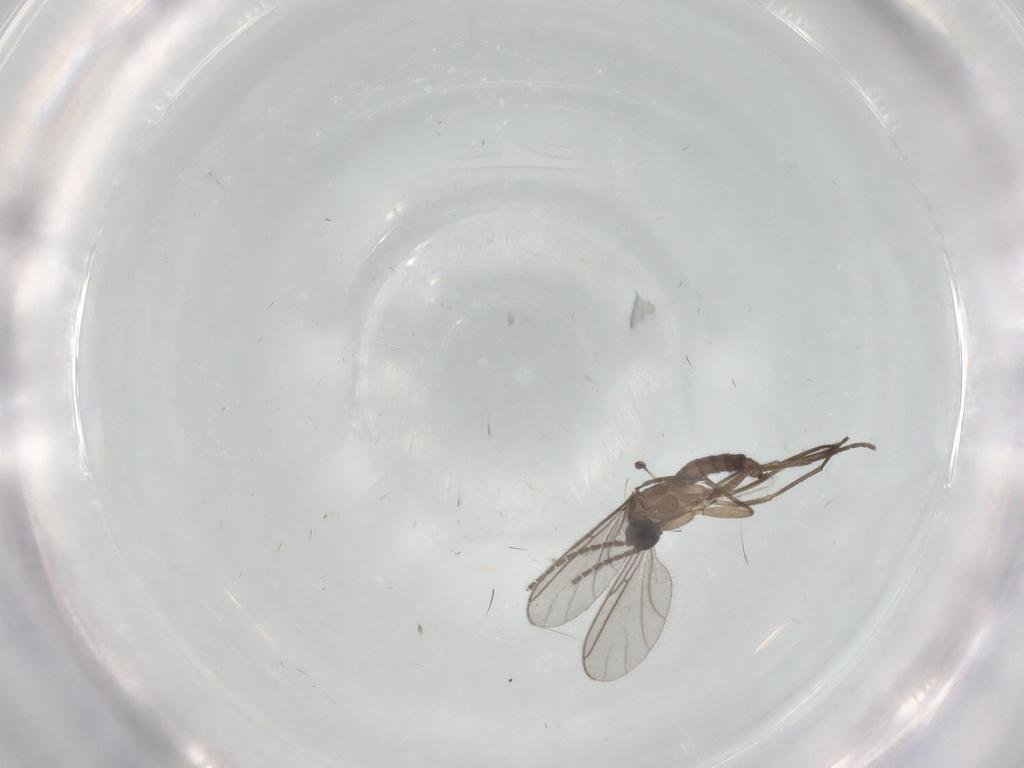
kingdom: Animalia
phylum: Arthropoda
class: Insecta
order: Diptera
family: Sciaridae
